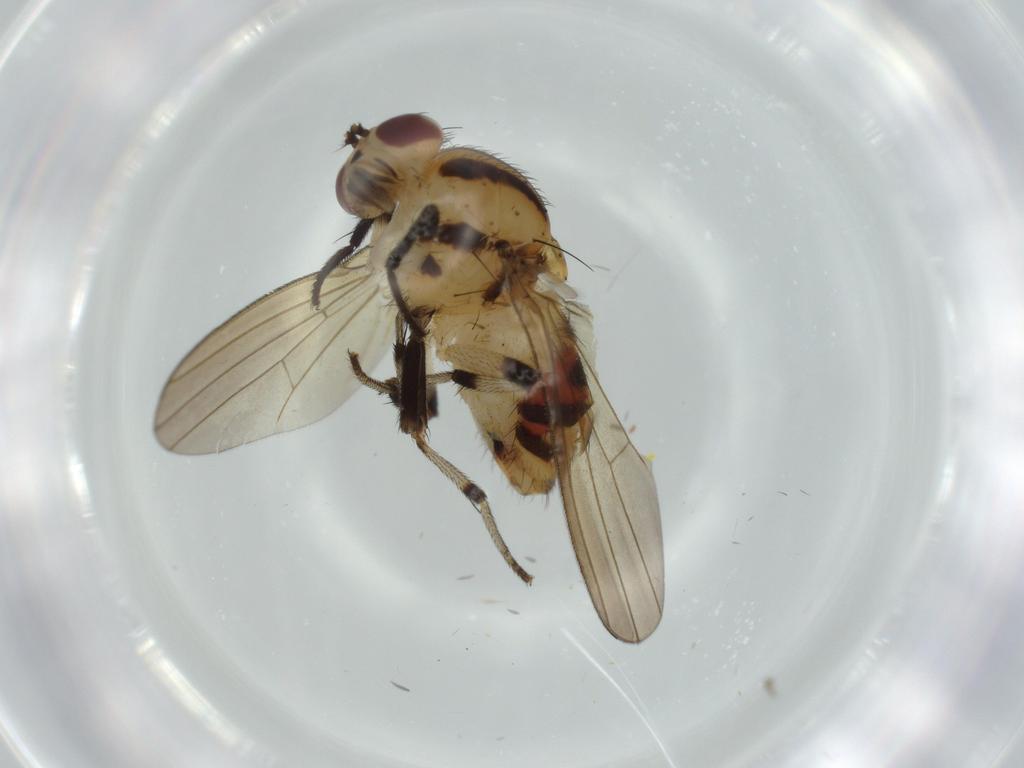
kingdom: Animalia
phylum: Arthropoda
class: Insecta
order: Diptera
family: Lauxaniidae
